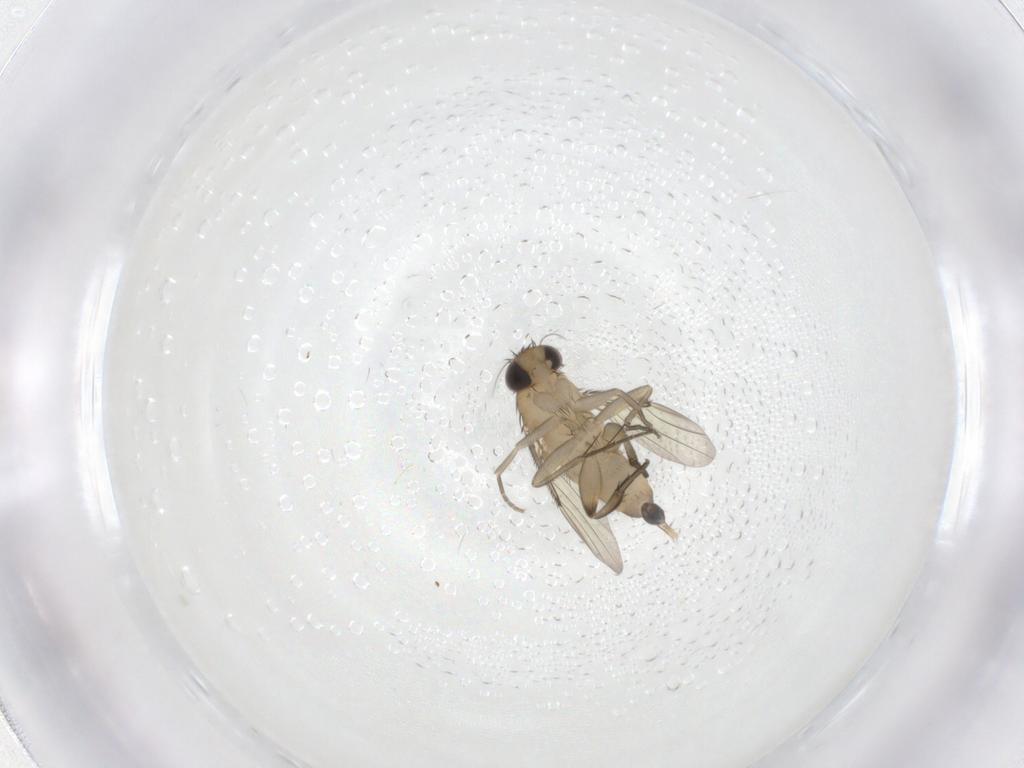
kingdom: Animalia
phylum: Arthropoda
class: Insecta
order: Diptera
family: Phoridae
